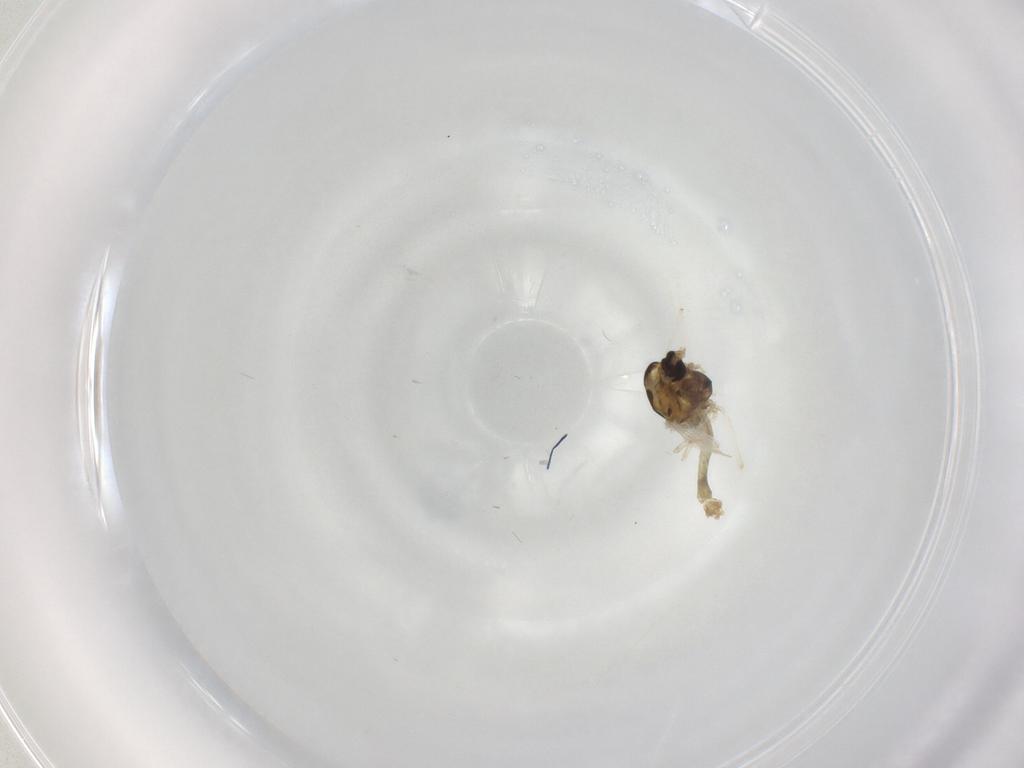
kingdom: Animalia
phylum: Arthropoda
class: Insecta
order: Diptera
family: Chironomidae
